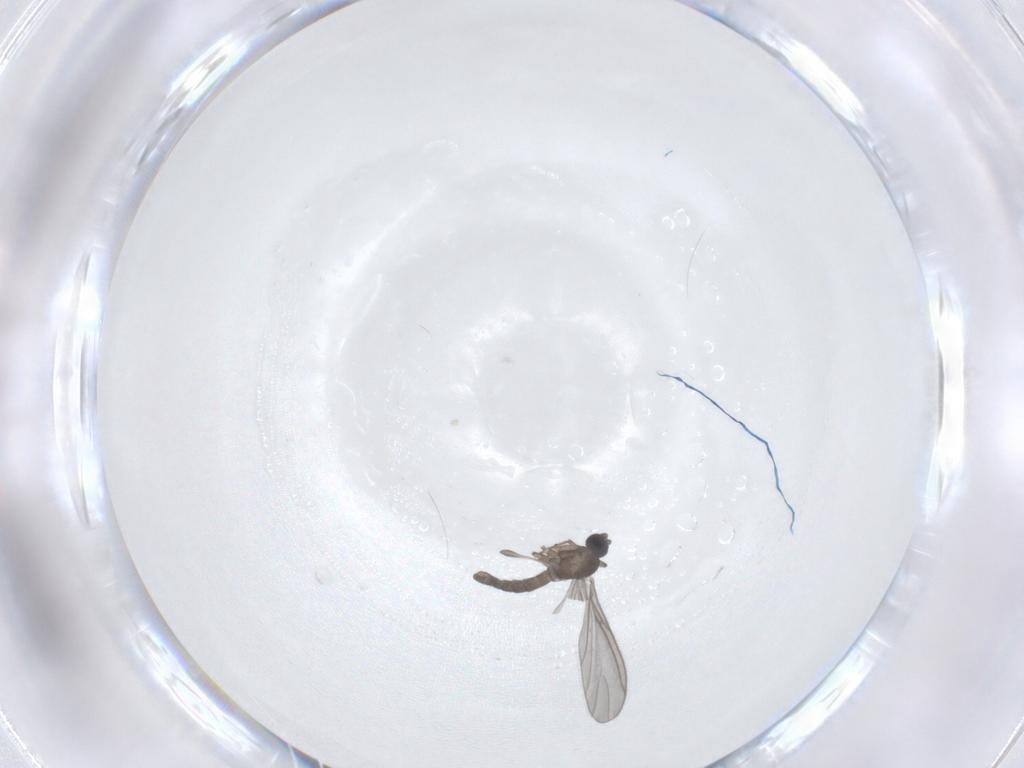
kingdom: Animalia
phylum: Arthropoda
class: Insecta
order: Diptera
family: Sciaridae
